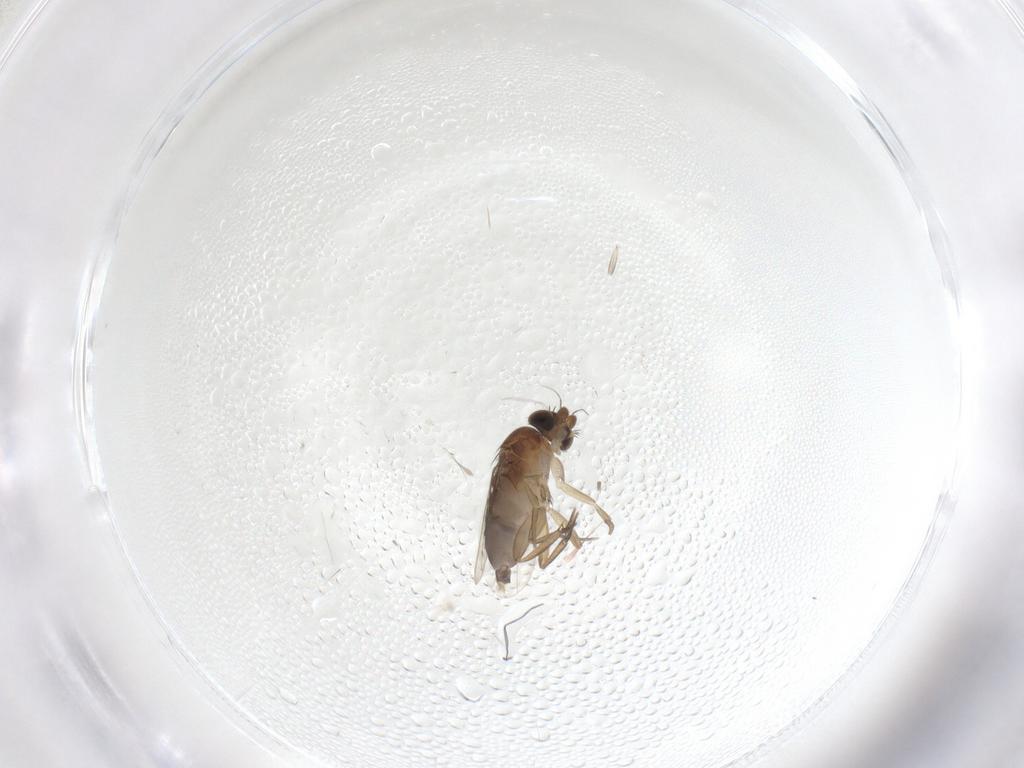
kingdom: Animalia
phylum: Arthropoda
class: Insecta
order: Diptera
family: Phoridae
